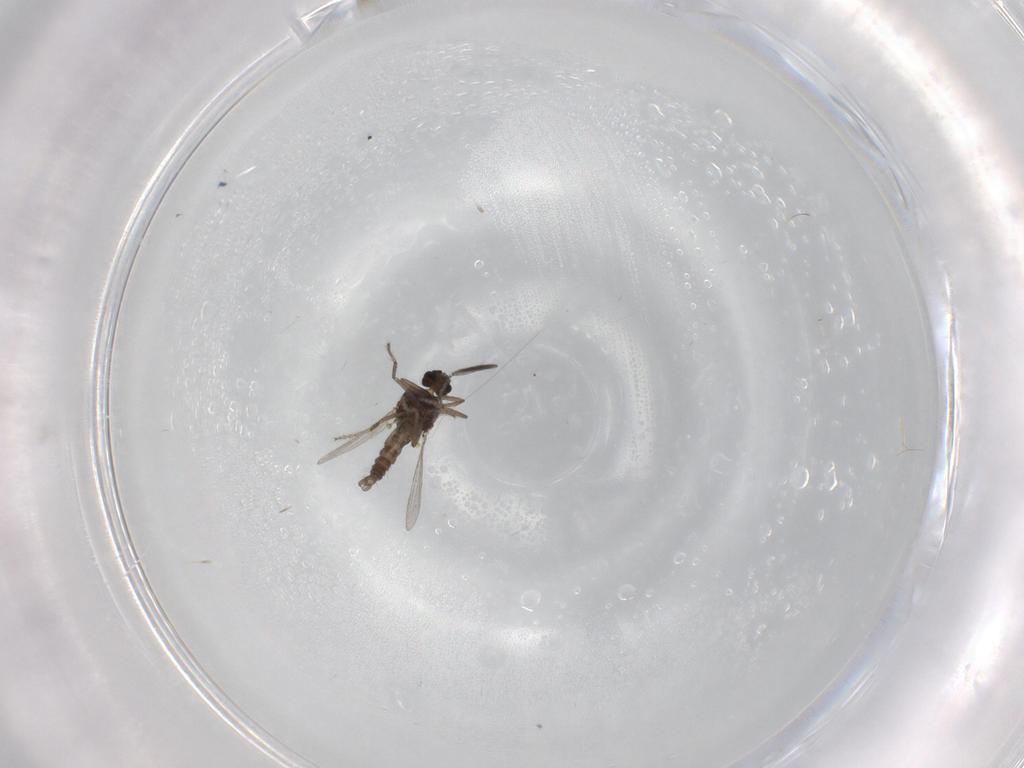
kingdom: Animalia
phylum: Arthropoda
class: Insecta
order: Diptera
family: Ceratopogonidae
